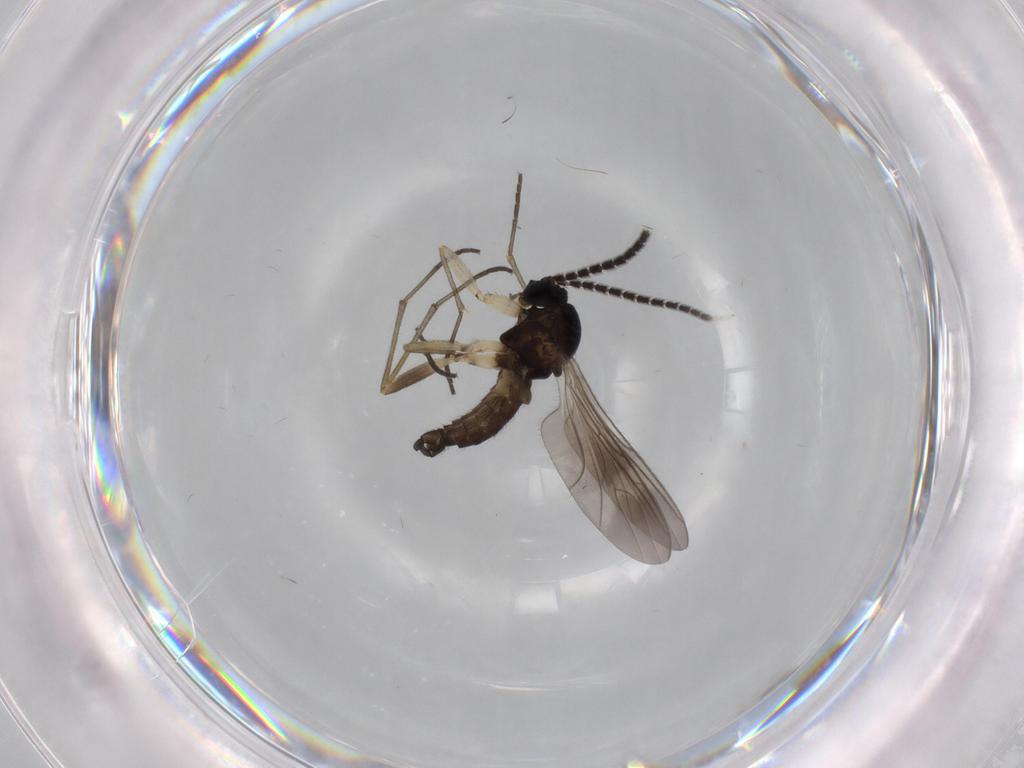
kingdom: Animalia
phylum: Arthropoda
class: Insecta
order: Diptera
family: Sciaridae
